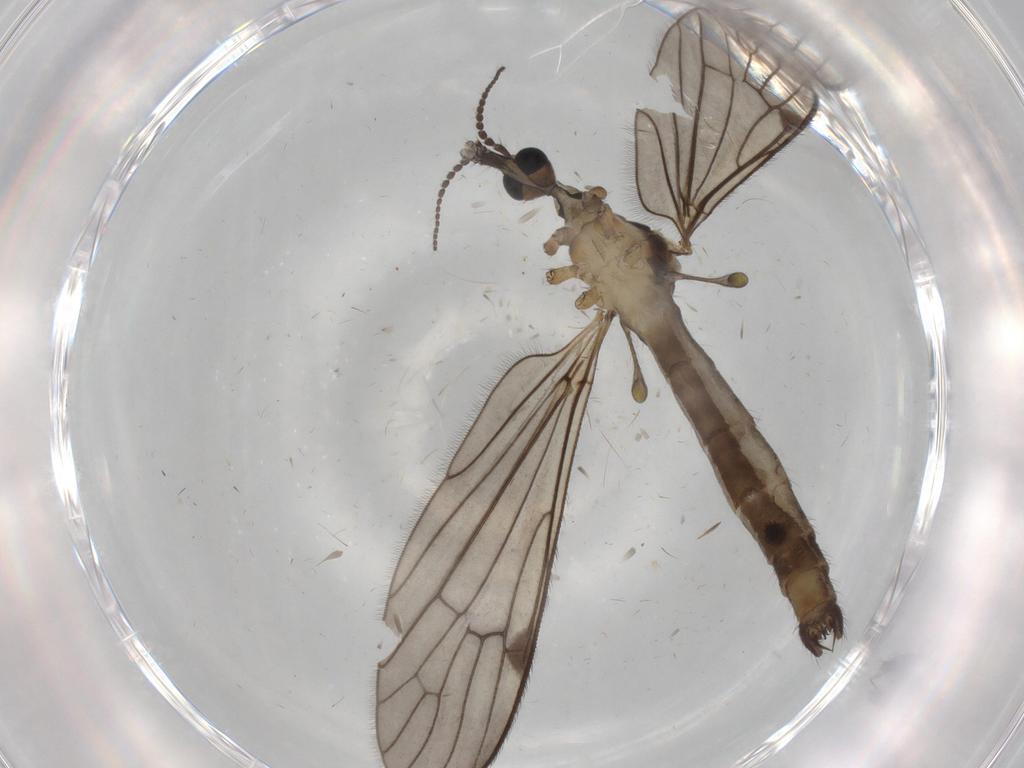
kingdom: Animalia
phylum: Arthropoda
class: Insecta
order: Diptera
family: Limoniidae
